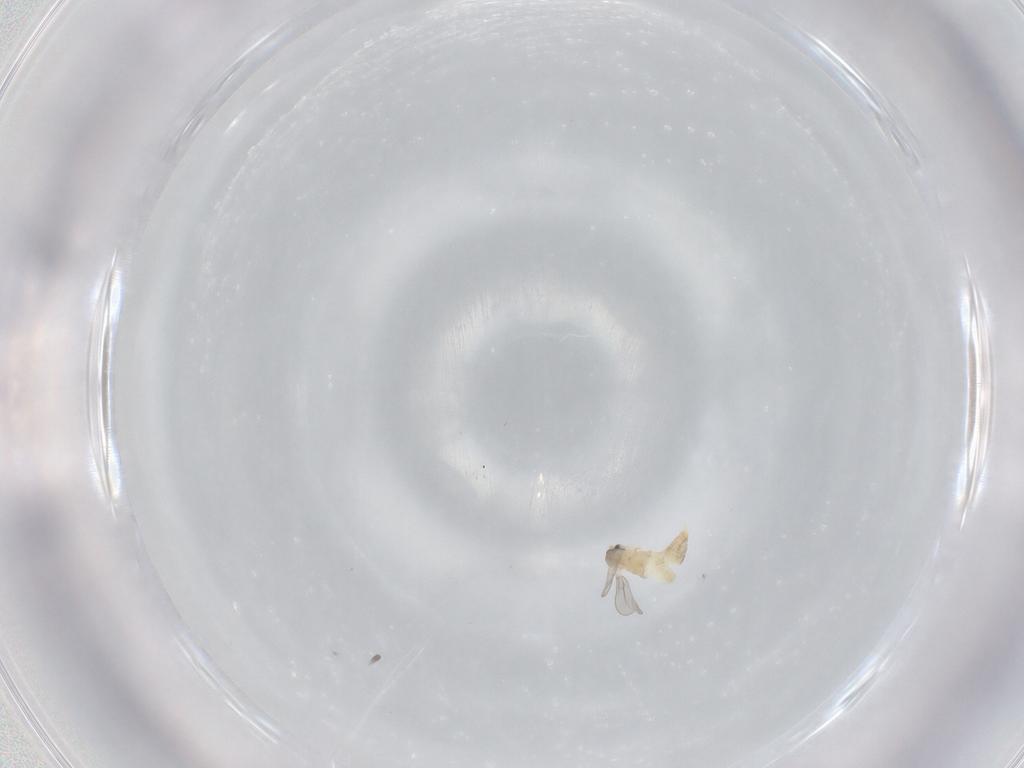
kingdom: Animalia
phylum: Arthropoda
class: Insecta
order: Diptera
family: Cecidomyiidae
